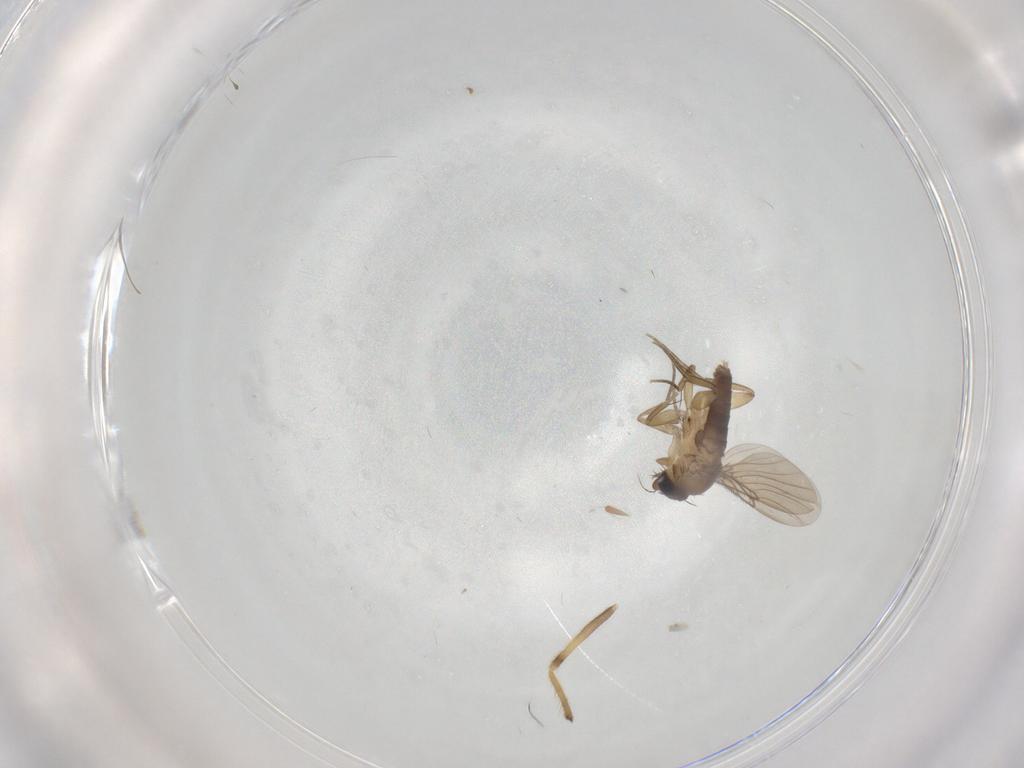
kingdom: Animalia
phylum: Arthropoda
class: Insecta
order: Diptera
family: Phoridae
